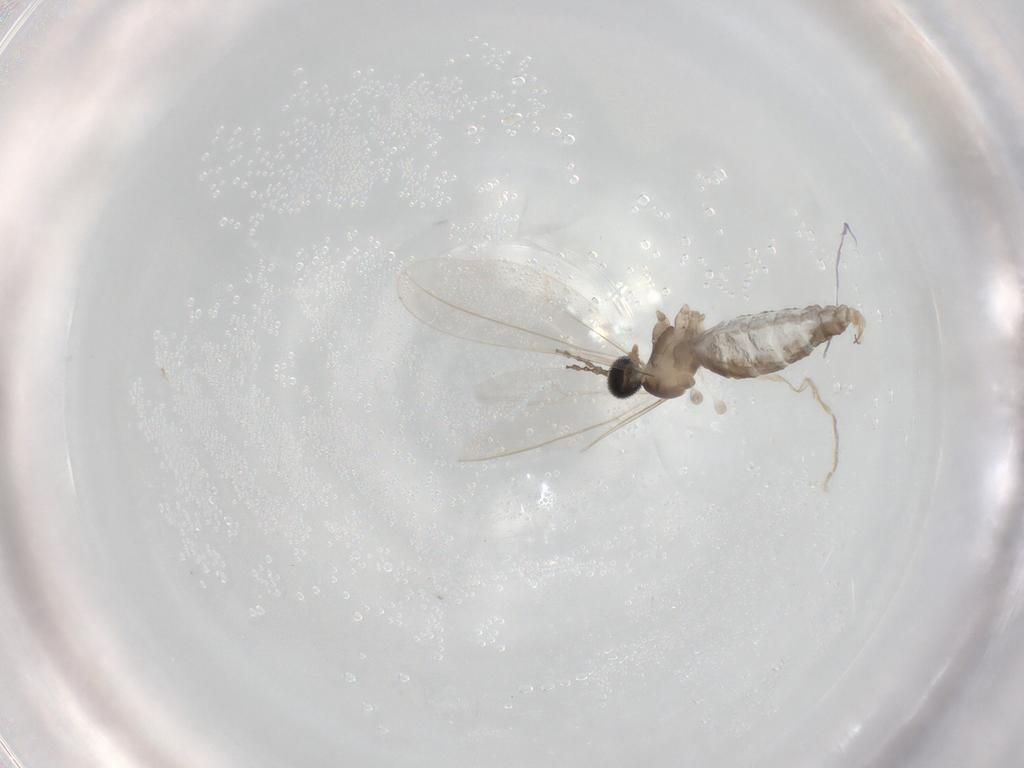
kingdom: Animalia
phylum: Arthropoda
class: Insecta
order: Diptera
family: Cecidomyiidae
